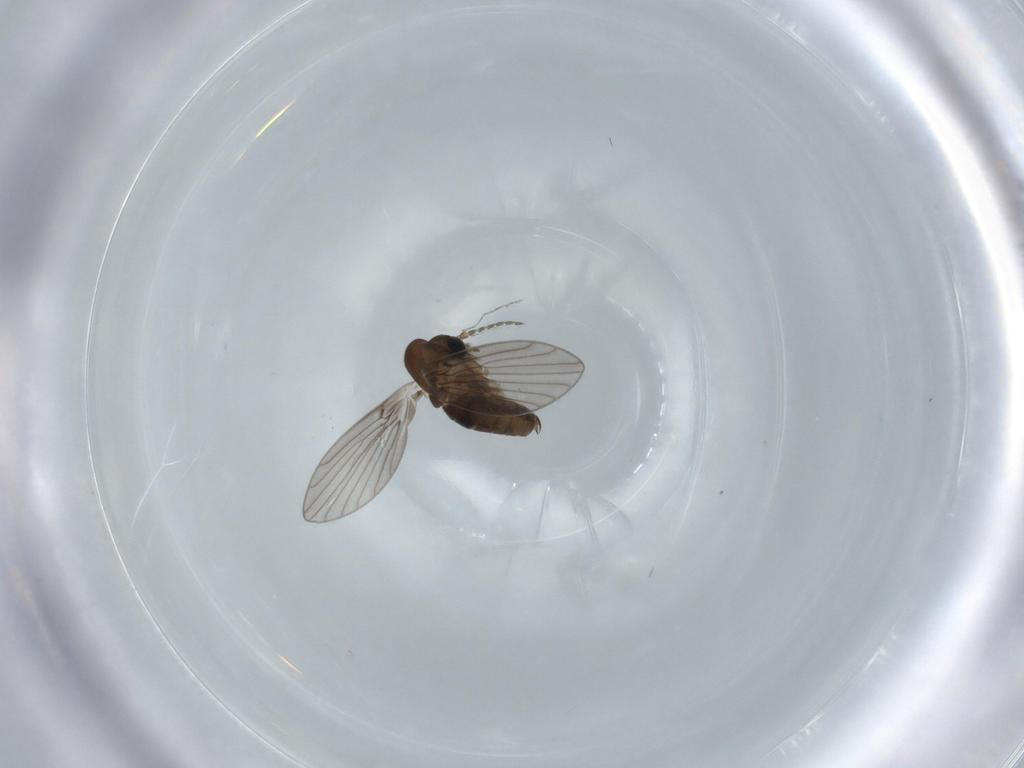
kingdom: Animalia
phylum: Arthropoda
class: Insecta
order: Diptera
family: Psychodidae
